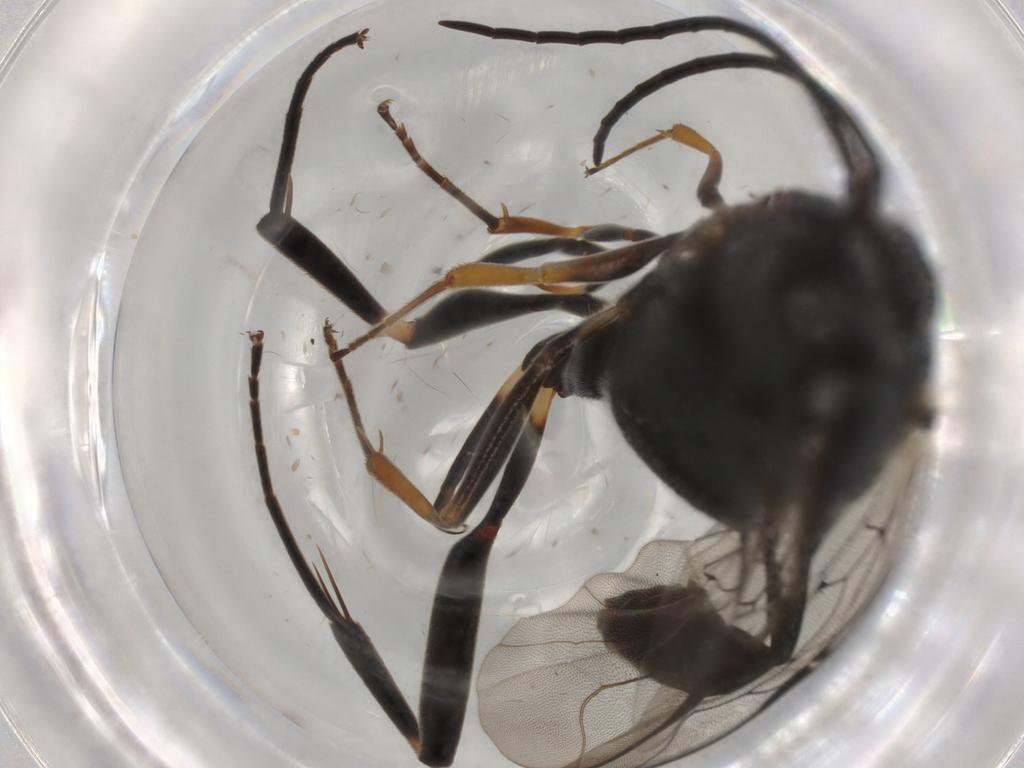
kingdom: Animalia
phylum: Arthropoda
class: Insecta
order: Hymenoptera
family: Evaniidae
